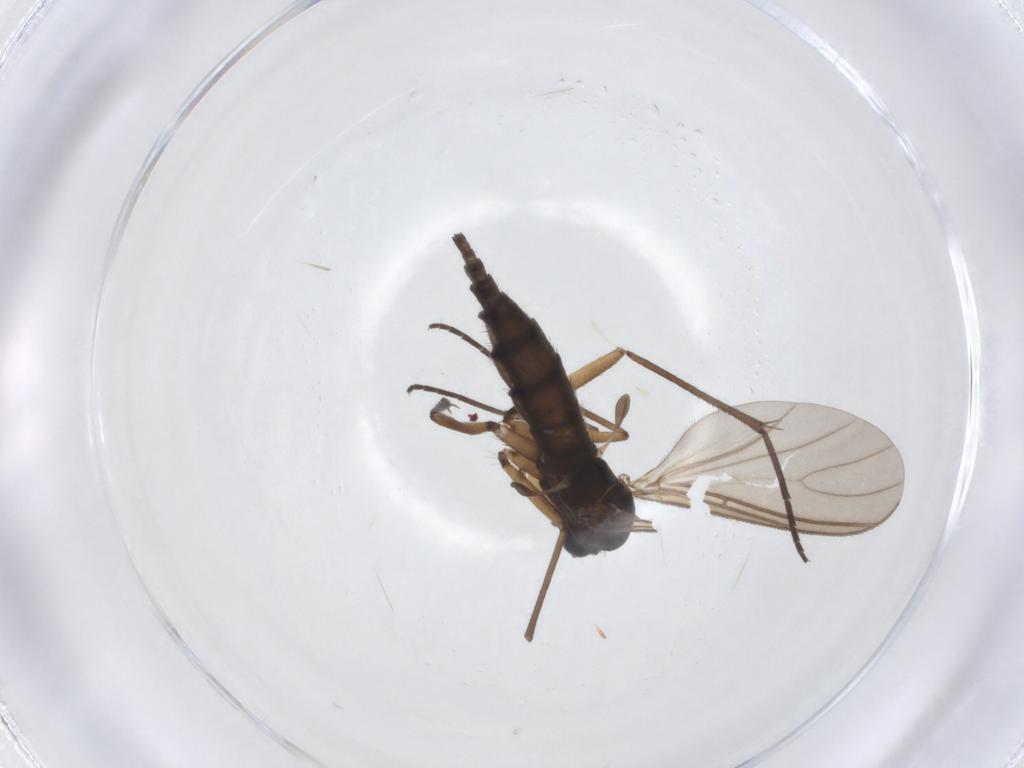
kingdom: Animalia
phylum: Arthropoda
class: Insecta
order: Diptera
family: Sciaridae
